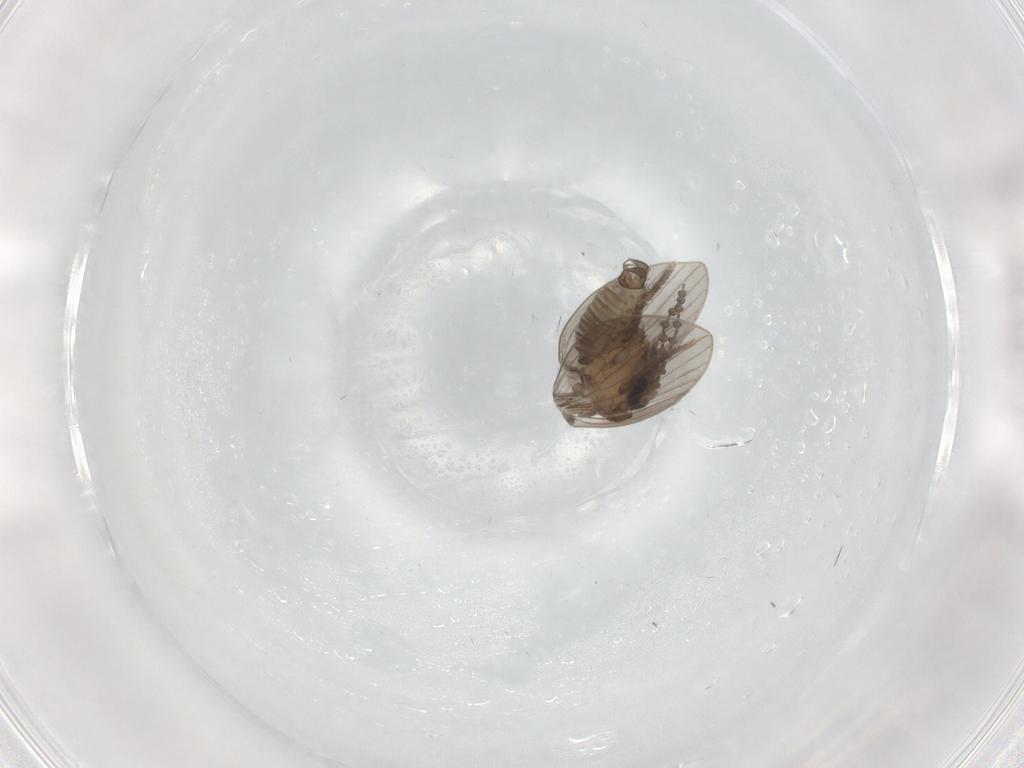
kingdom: Animalia
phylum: Arthropoda
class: Insecta
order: Diptera
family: Psychodidae
